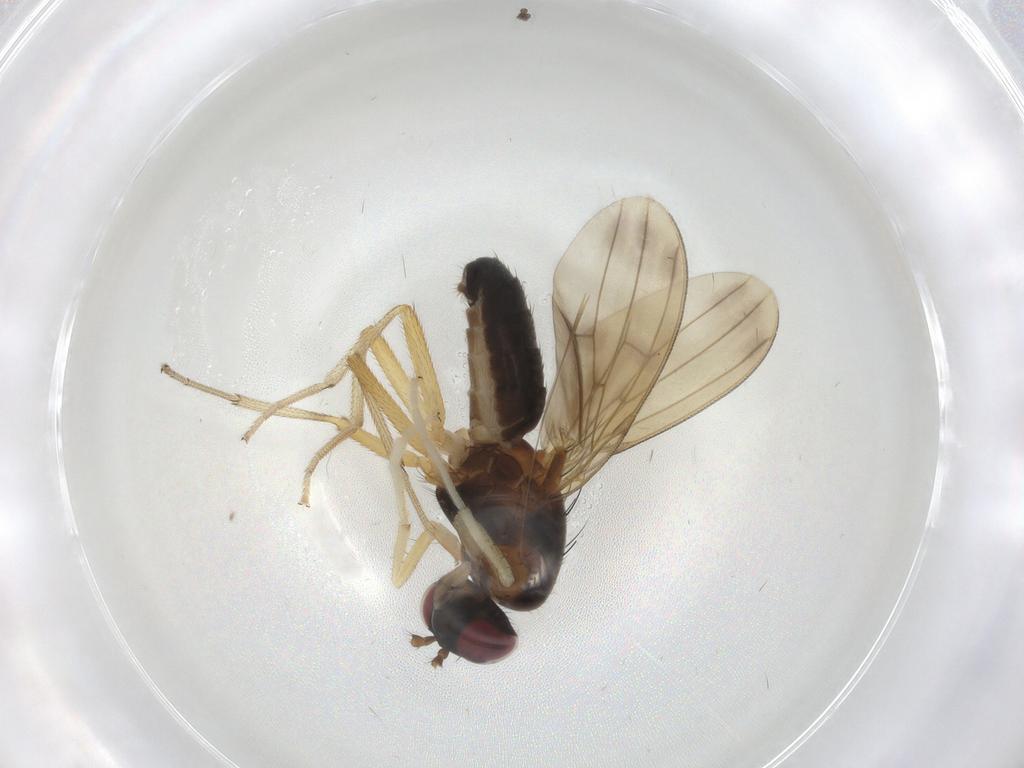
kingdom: Animalia
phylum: Arthropoda
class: Insecta
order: Diptera
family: Lauxaniidae
